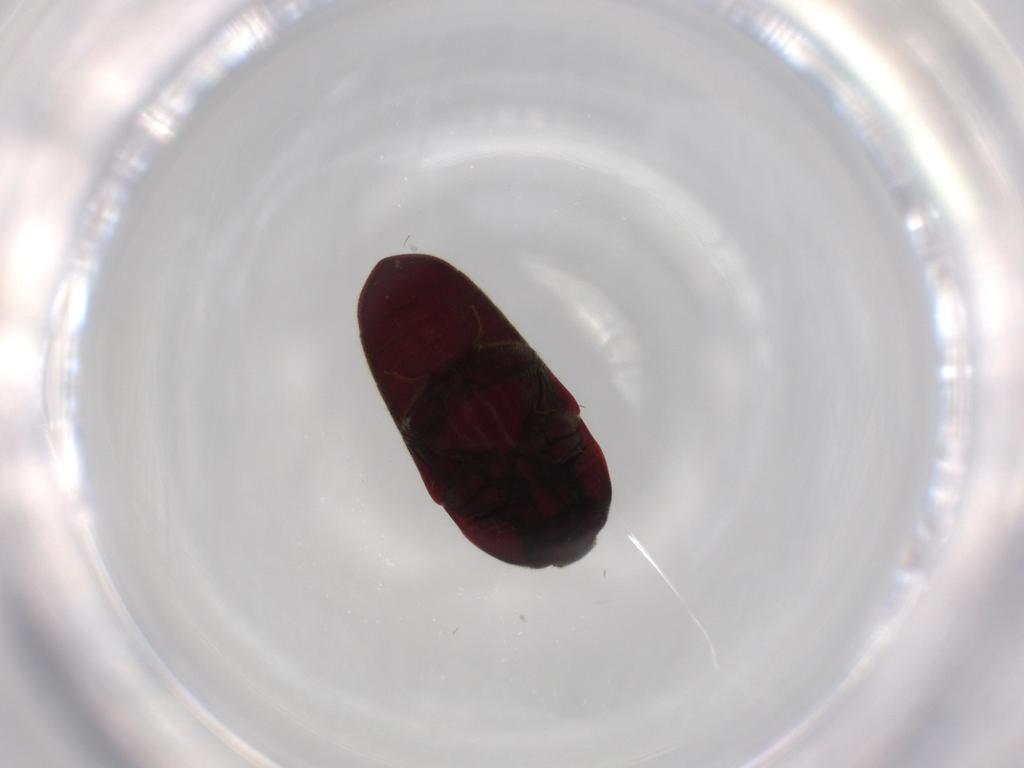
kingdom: Animalia
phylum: Arthropoda
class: Insecta
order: Coleoptera
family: Throscidae
